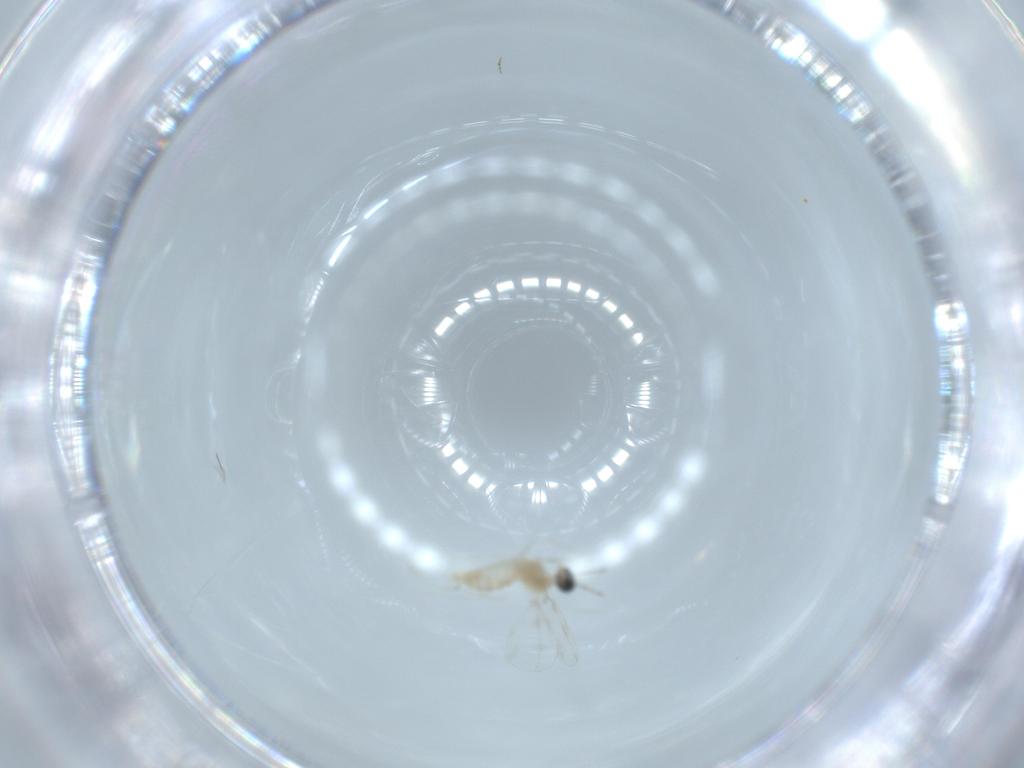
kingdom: Animalia
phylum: Arthropoda
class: Insecta
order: Diptera
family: Cecidomyiidae
